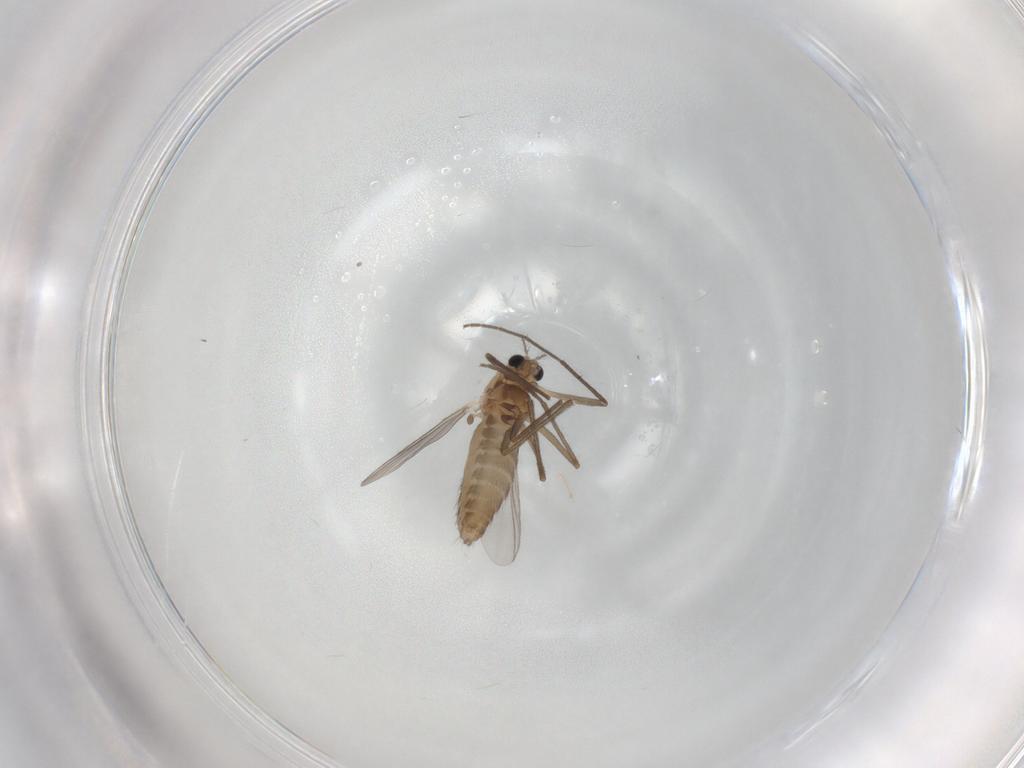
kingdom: Animalia
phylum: Arthropoda
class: Insecta
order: Diptera
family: Chironomidae
